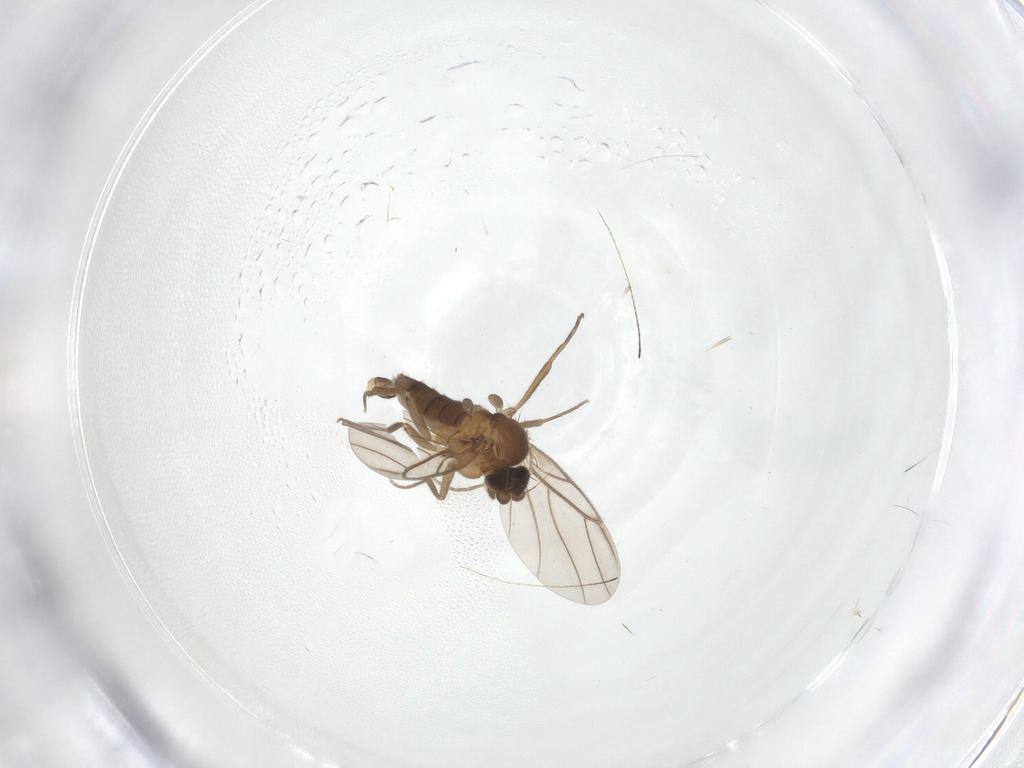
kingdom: Animalia
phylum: Arthropoda
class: Insecta
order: Diptera
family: Phoridae
